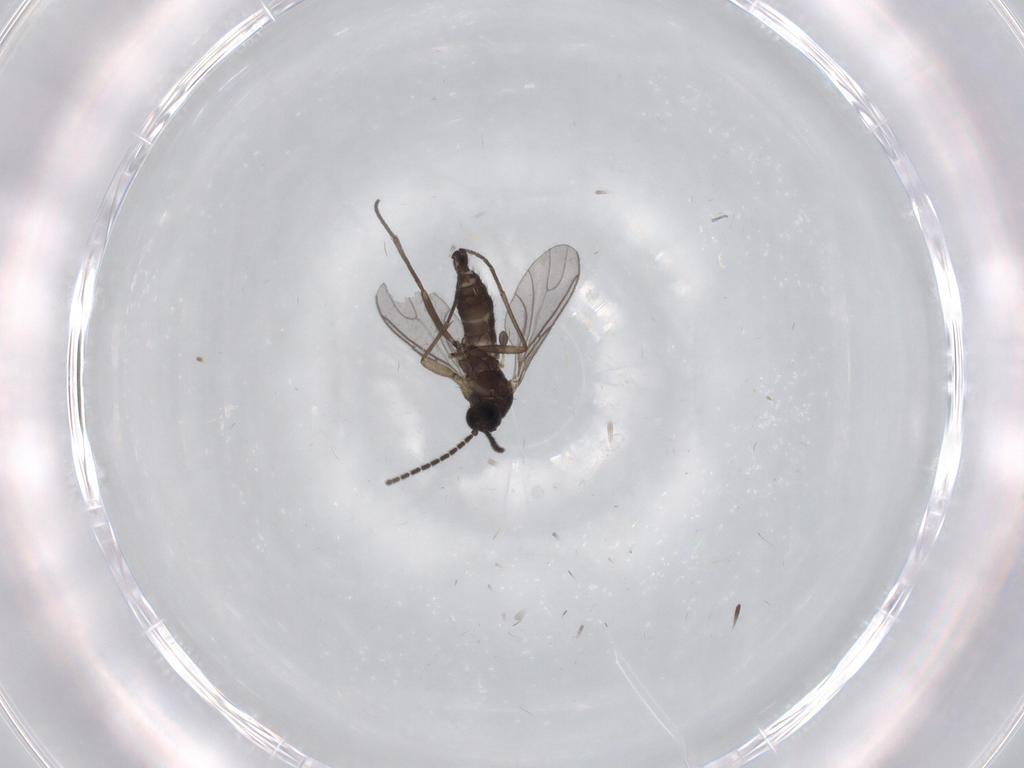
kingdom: Animalia
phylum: Arthropoda
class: Insecta
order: Diptera
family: Sciaridae
